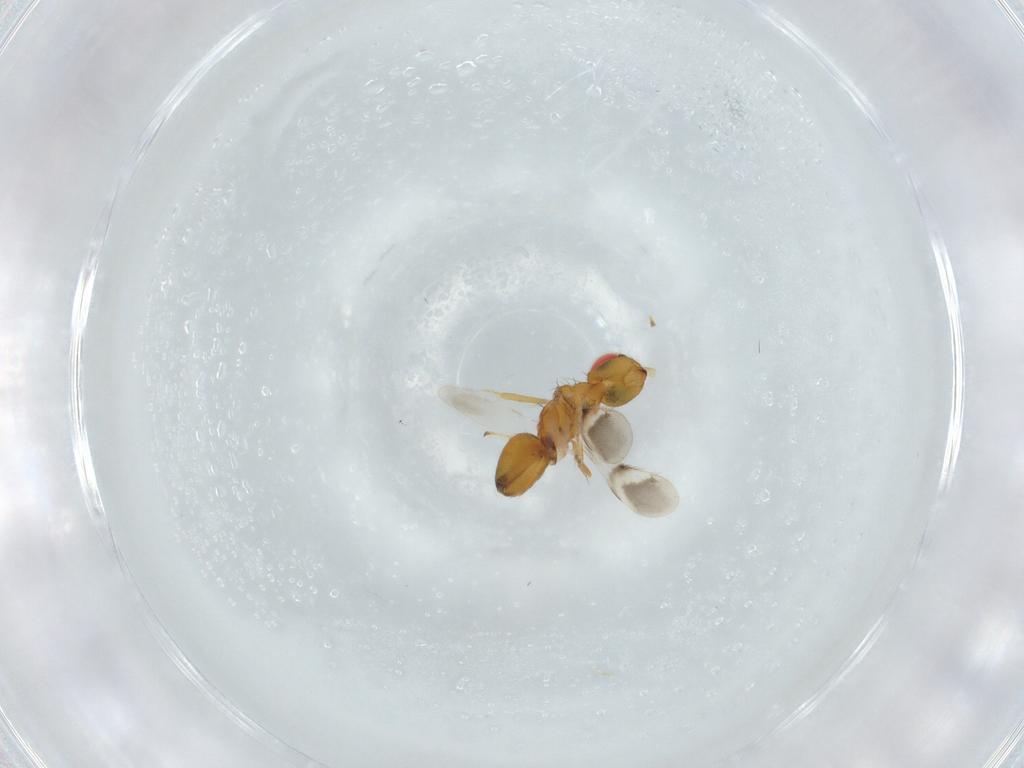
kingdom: Animalia
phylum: Arthropoda
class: Insecta
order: Hymenoptera
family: Eulophidae
